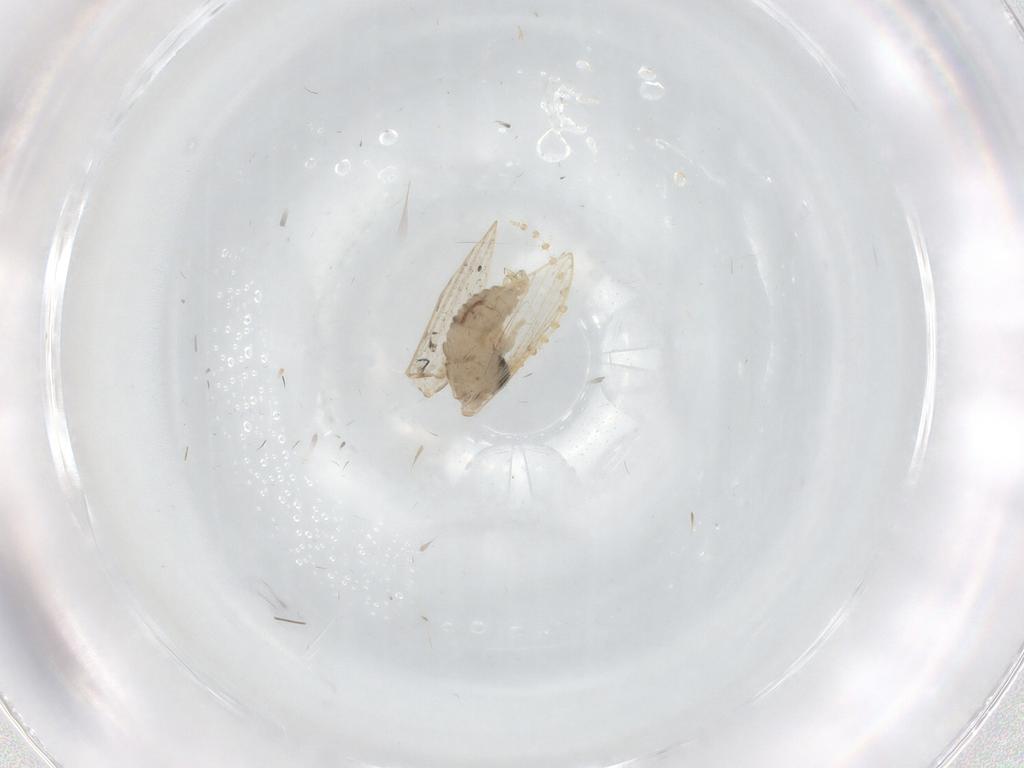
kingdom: Animalia
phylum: Arthropoda
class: Insecta
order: Diptera
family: Psychodidae
